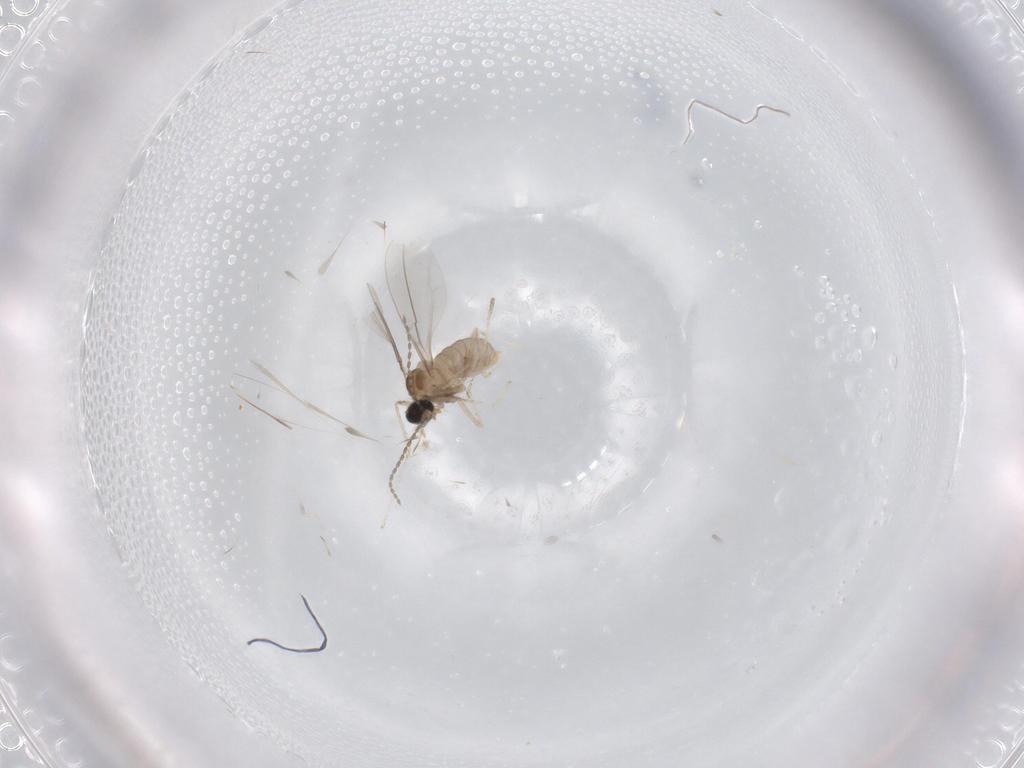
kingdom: Animalia
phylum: Arthropoda
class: Insecta
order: Diptera
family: Cecidomyiidae
